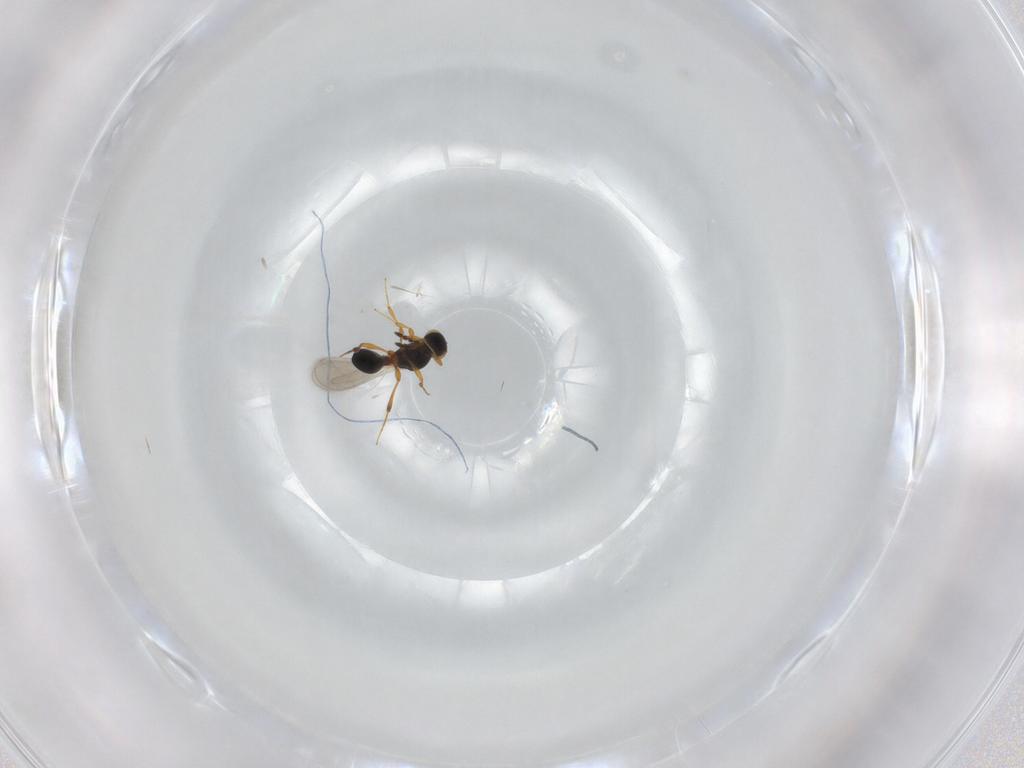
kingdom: Animalia
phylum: Arthropoda
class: Insecta
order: Hymenoptera
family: Platygastridae
